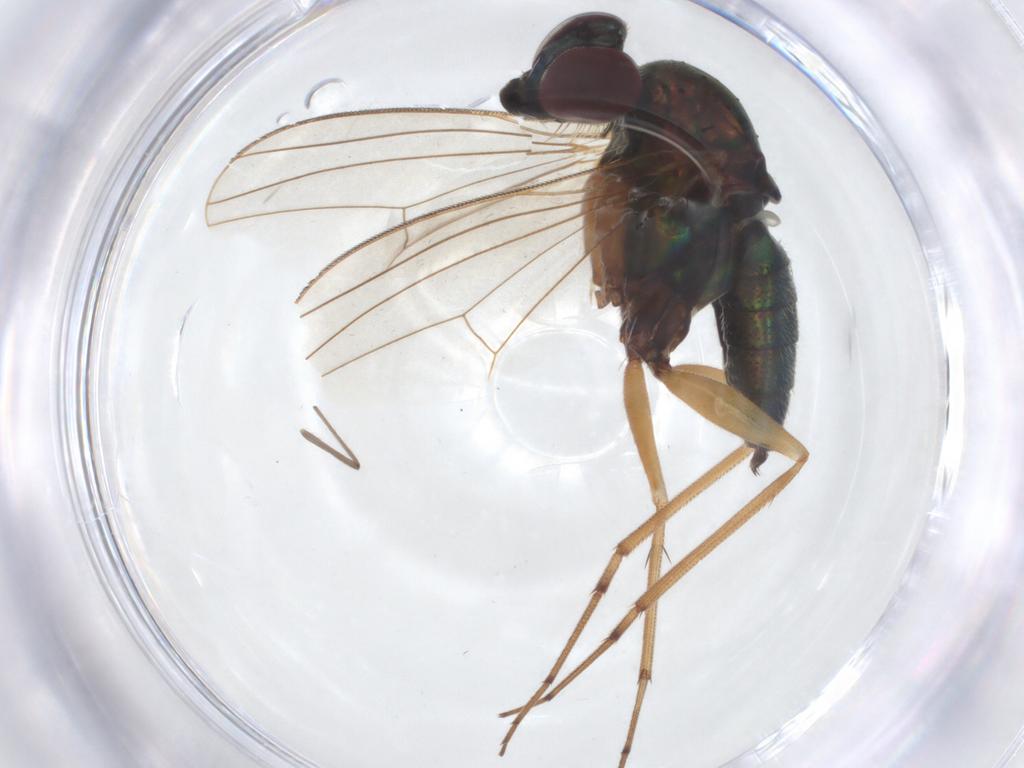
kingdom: Animalia
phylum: Arthropoda
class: Insecta
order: Diptera
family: Chironomidae
